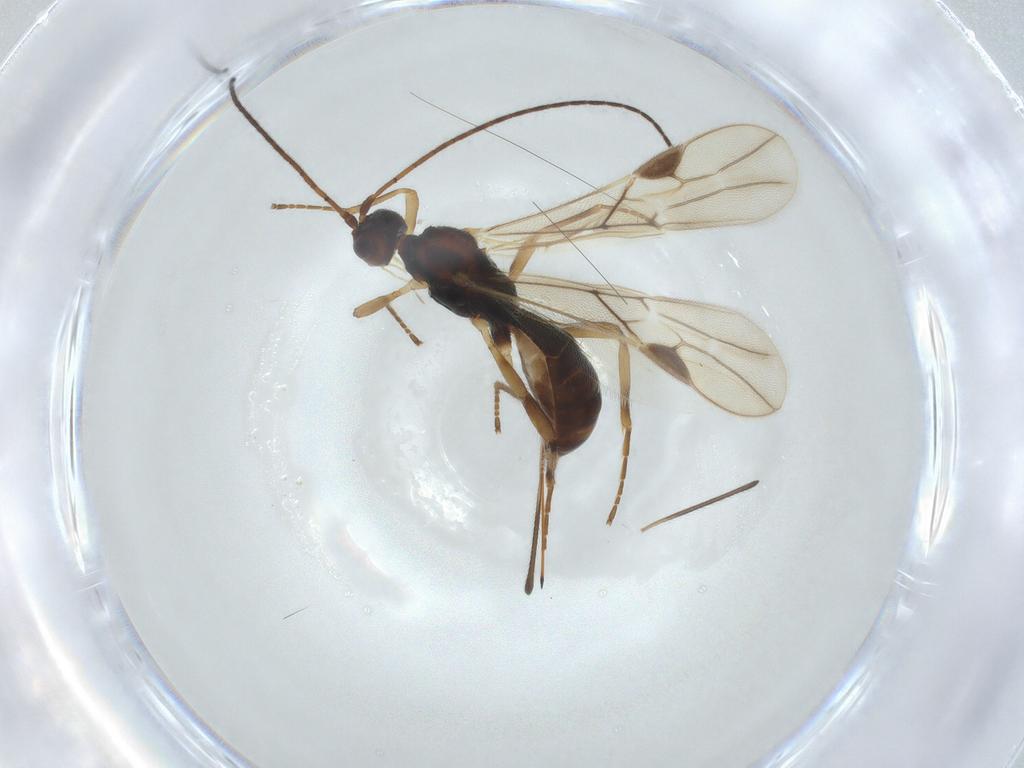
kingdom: Animalia
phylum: Arthropoda
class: Insecta
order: Hymenoptera
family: Braconidae
